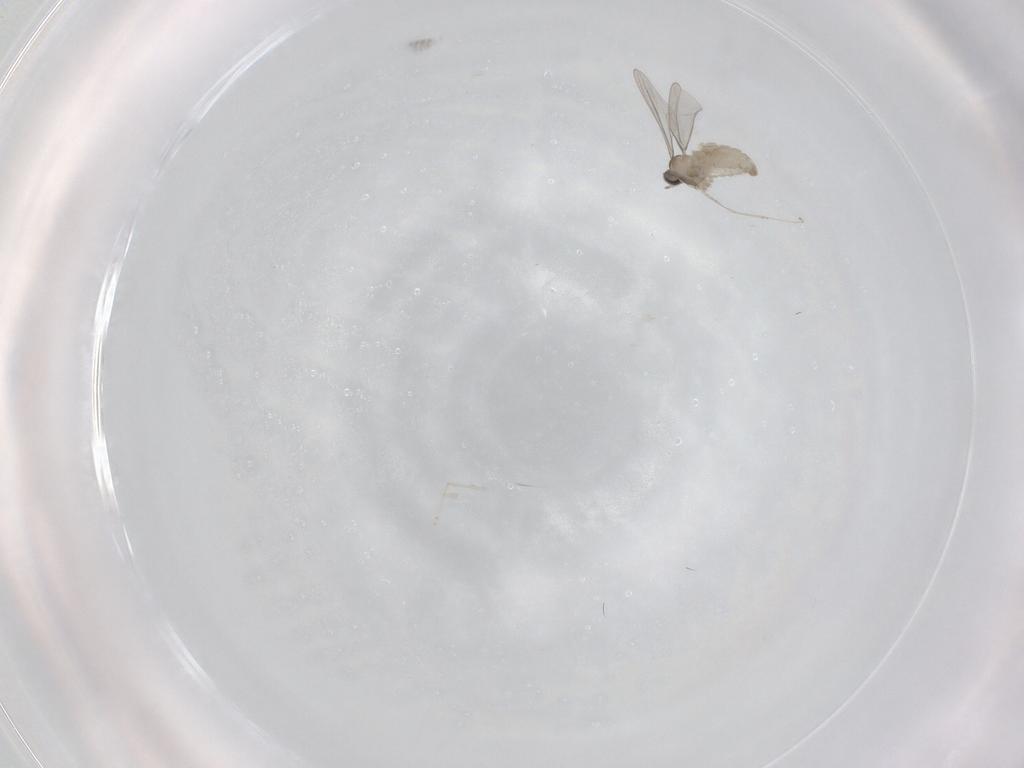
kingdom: Animalia
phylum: Arthropoda
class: Insecta
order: Diptera
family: Cecidomyiidae
